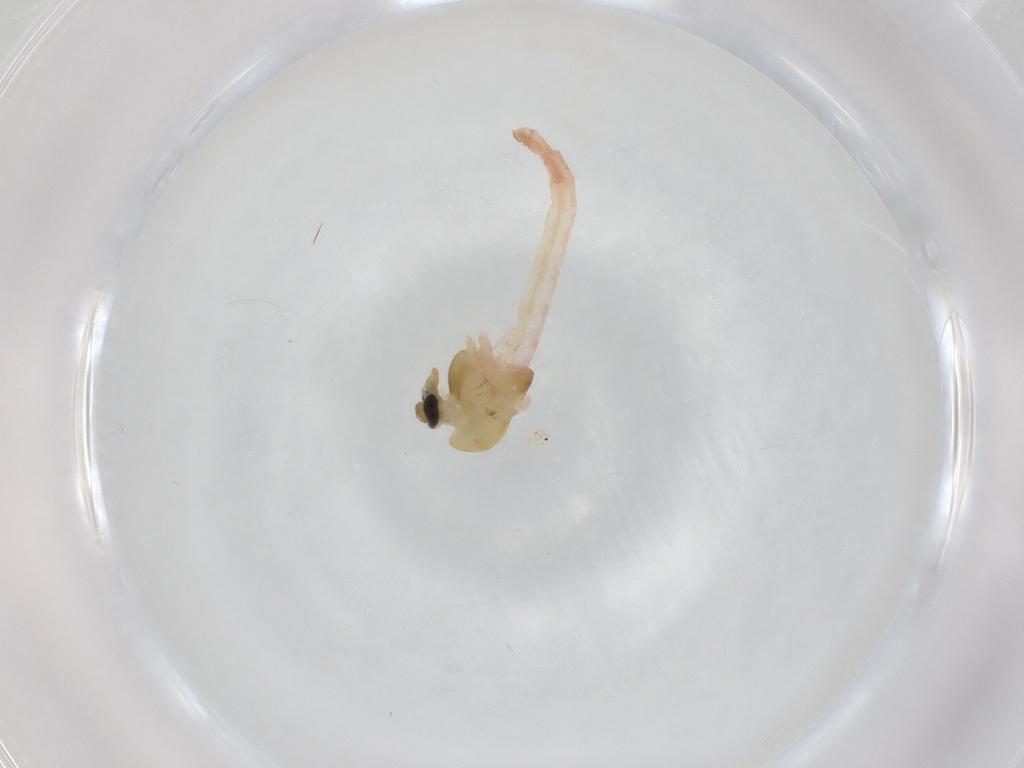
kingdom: Animalia
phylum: Arthropoda
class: Insecta
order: Diptera
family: Chironomidae
